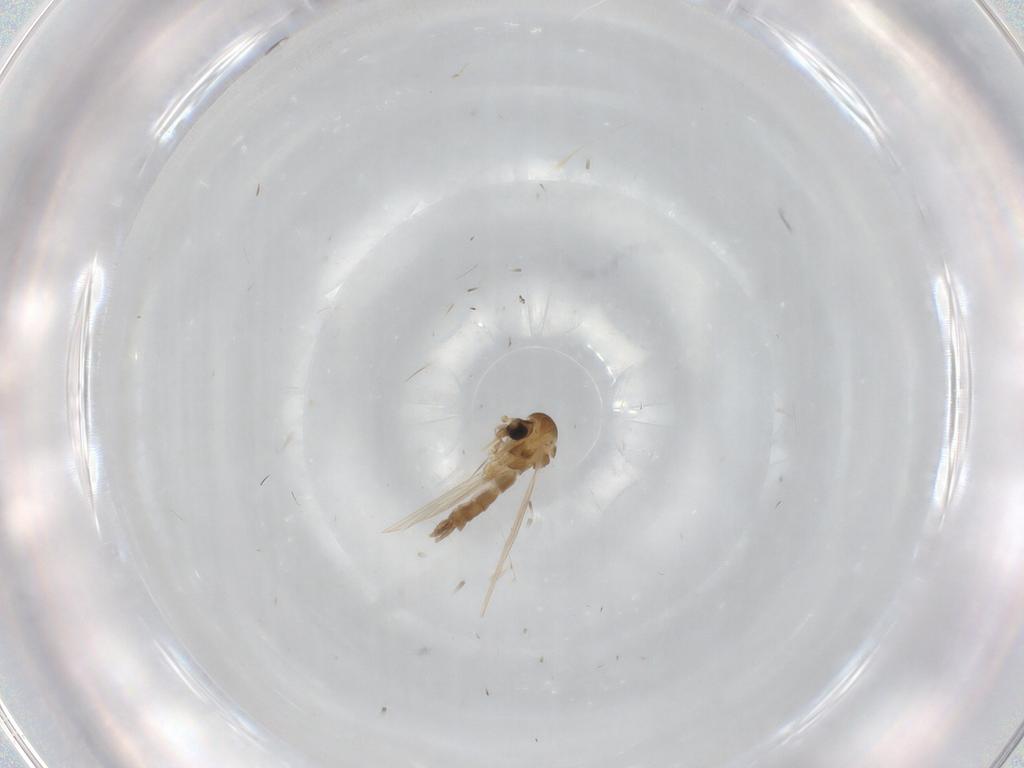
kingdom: Animalia
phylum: Arthropoda
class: Insecta
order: Diptera
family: Psychodidae
